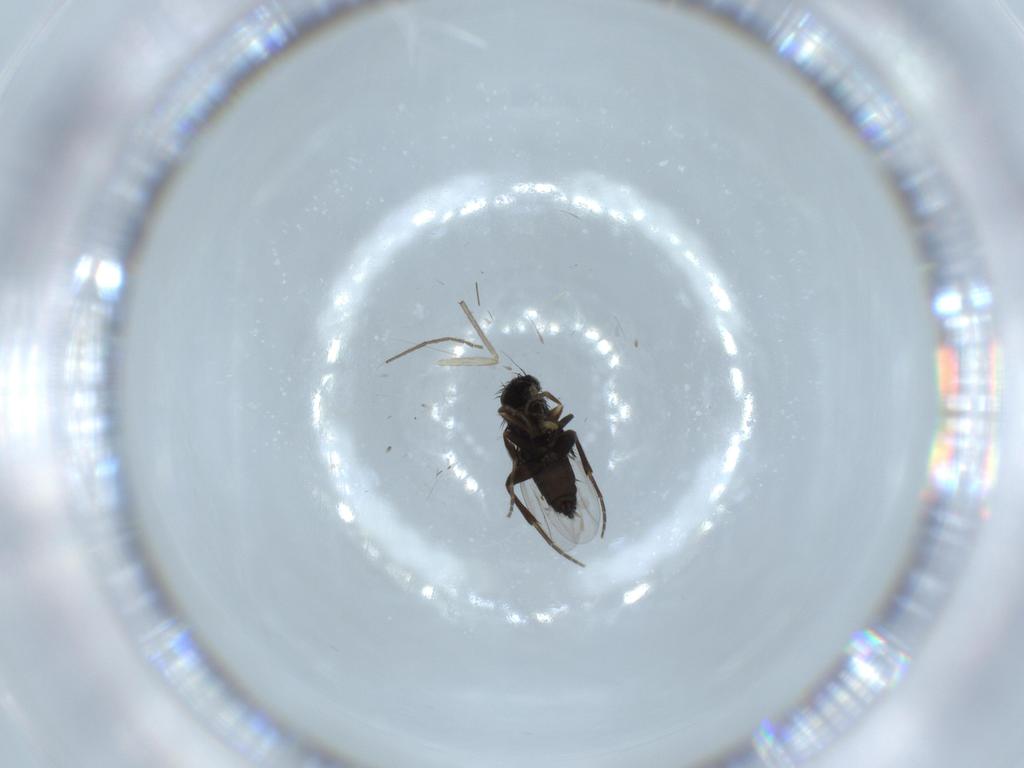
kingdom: Animalia
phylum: Arthropoda
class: Insecta
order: Diptera
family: Phoridae
